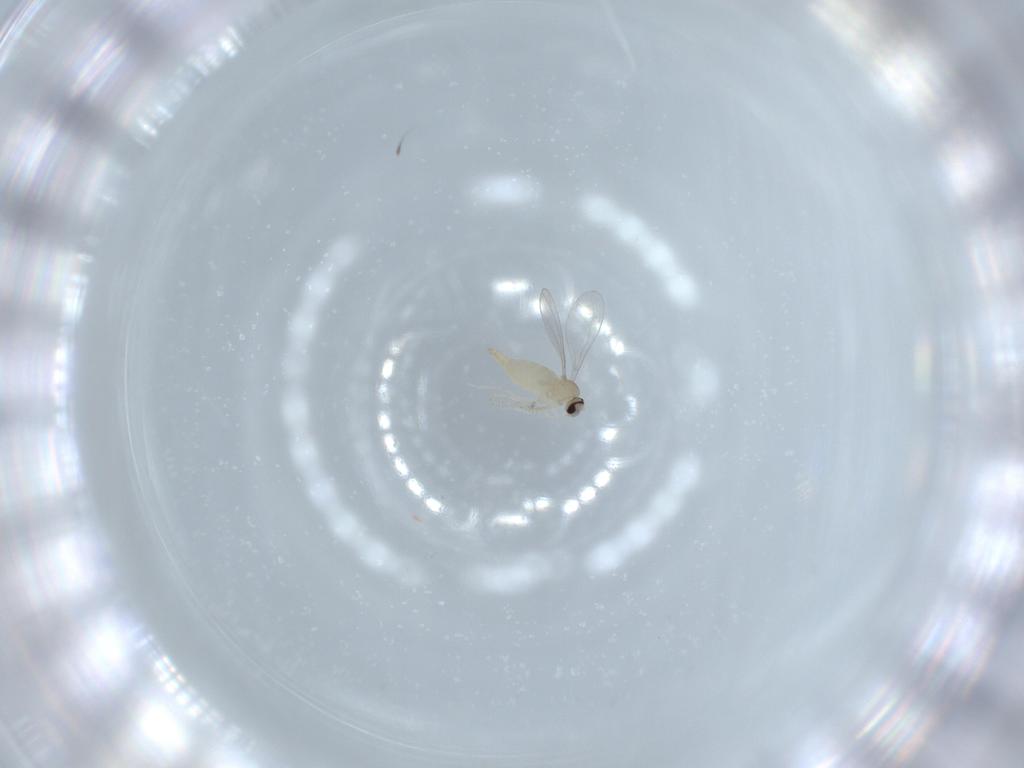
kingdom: Animalia
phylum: Arthropoda
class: Insecta
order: Diptera
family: Cecidomyiidae
